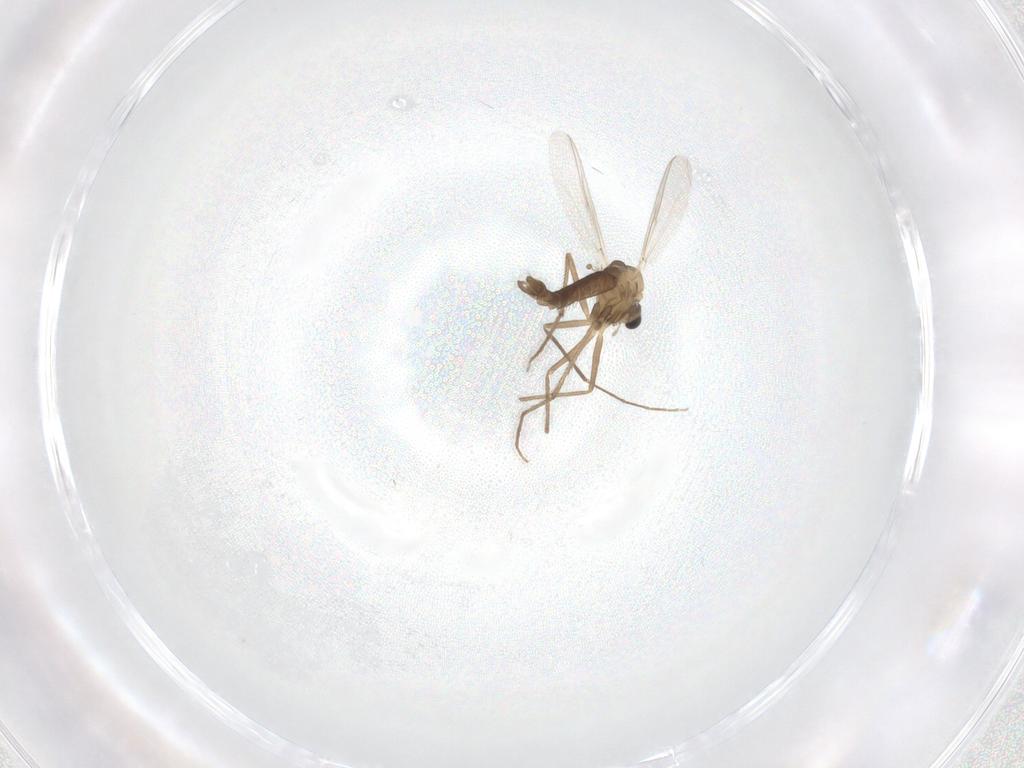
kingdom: Animalia
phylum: Arthropoda
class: Insecta
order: Diptera
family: Chironomidae
